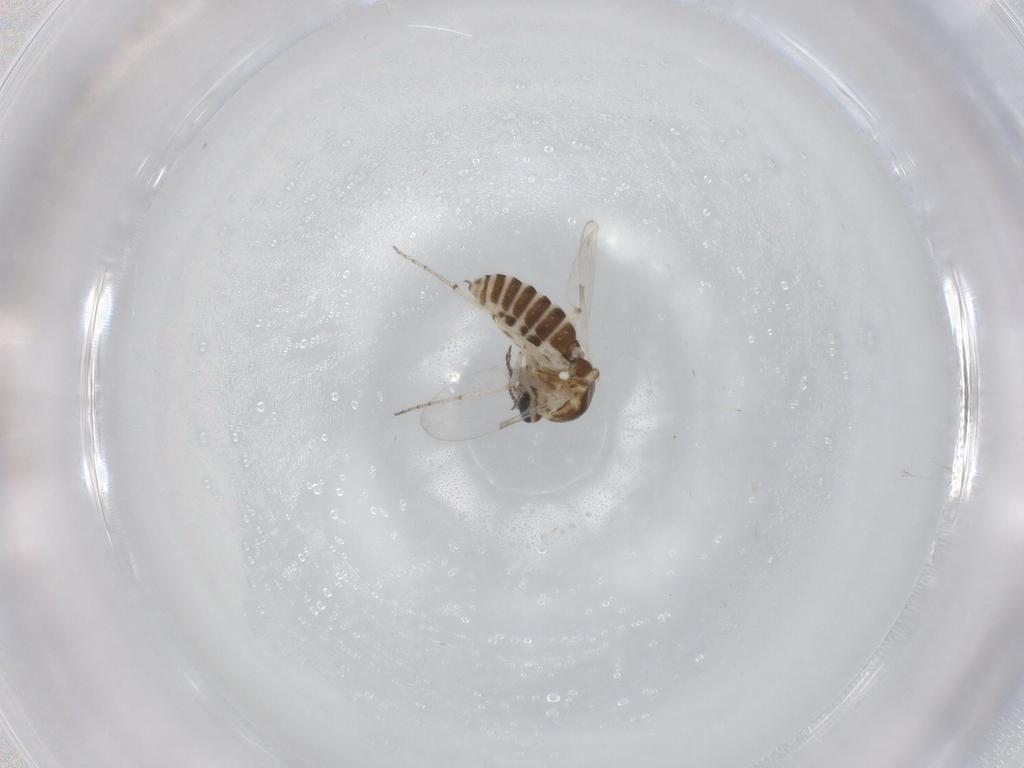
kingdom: Animalia
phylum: Arthropoda
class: Insecta
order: Diptera
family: Ceratopogonidae
